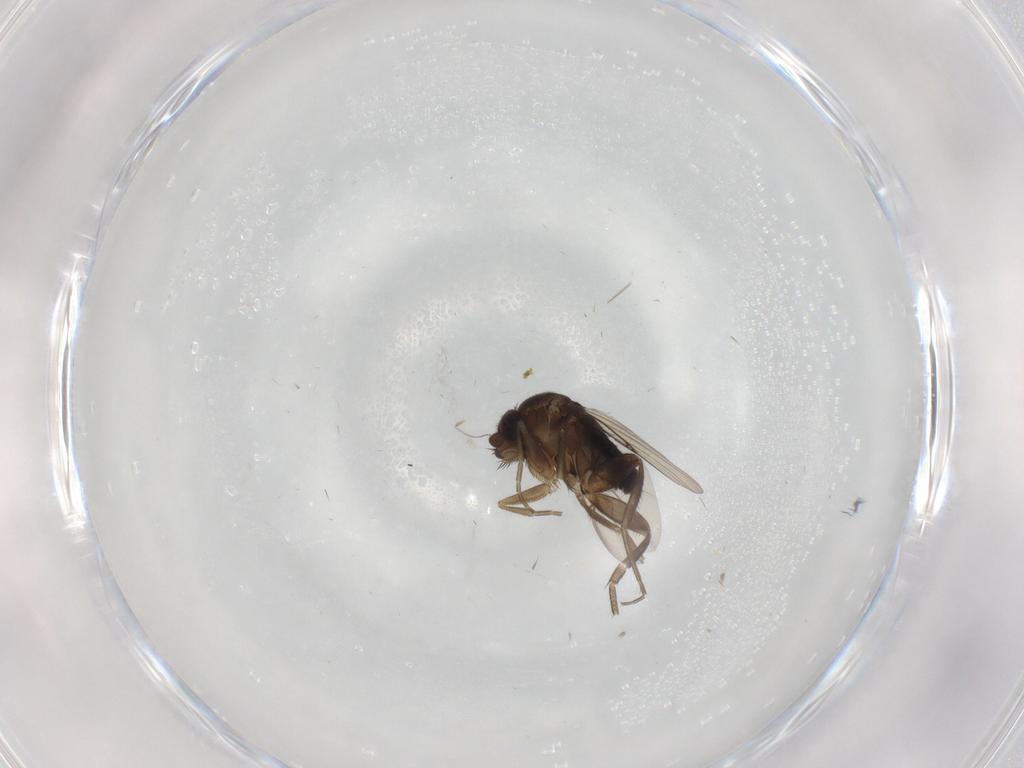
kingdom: Animalia
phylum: Arthropoda
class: Insecta
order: Diptera
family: Phoridae
